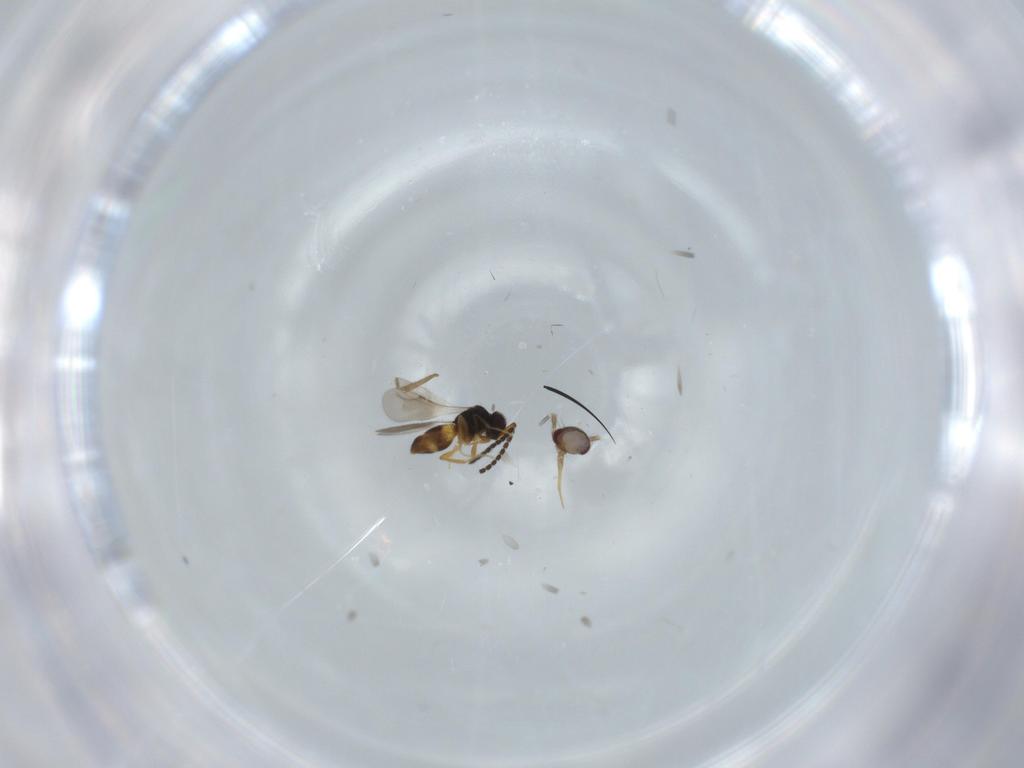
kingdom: Animalia
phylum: Arthropoda
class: Insecta
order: Hymenoptera
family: Trichogrammatidae
